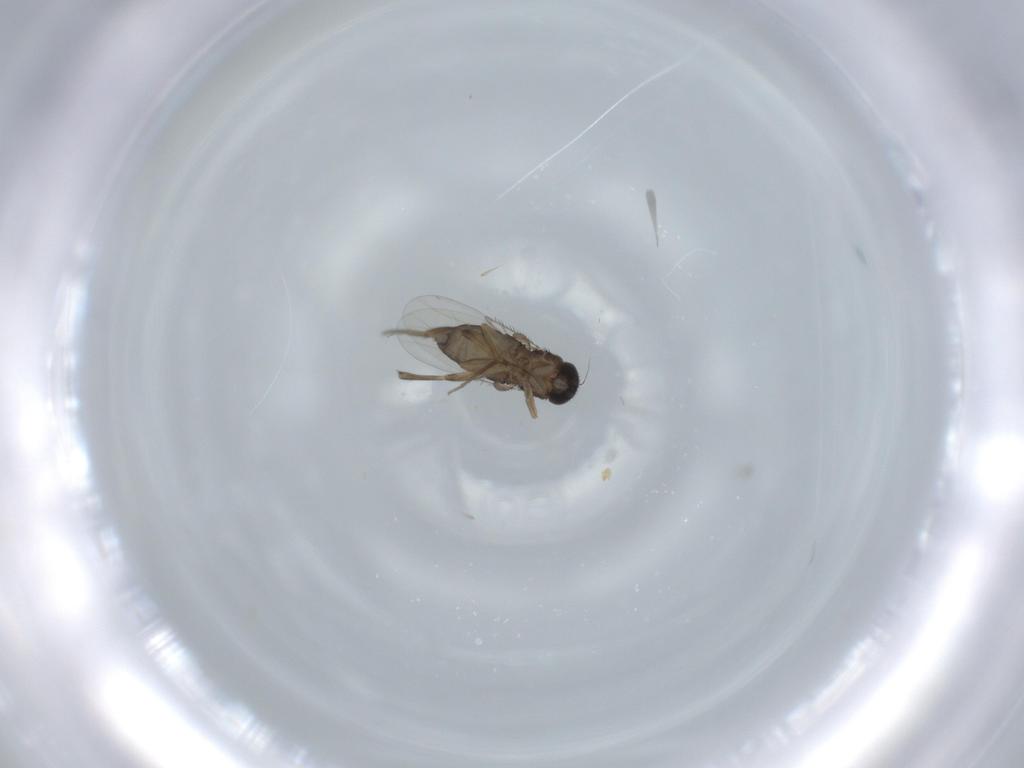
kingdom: Animalia
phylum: Arthropoda
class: Insecta
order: Diptera
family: Phoridae
